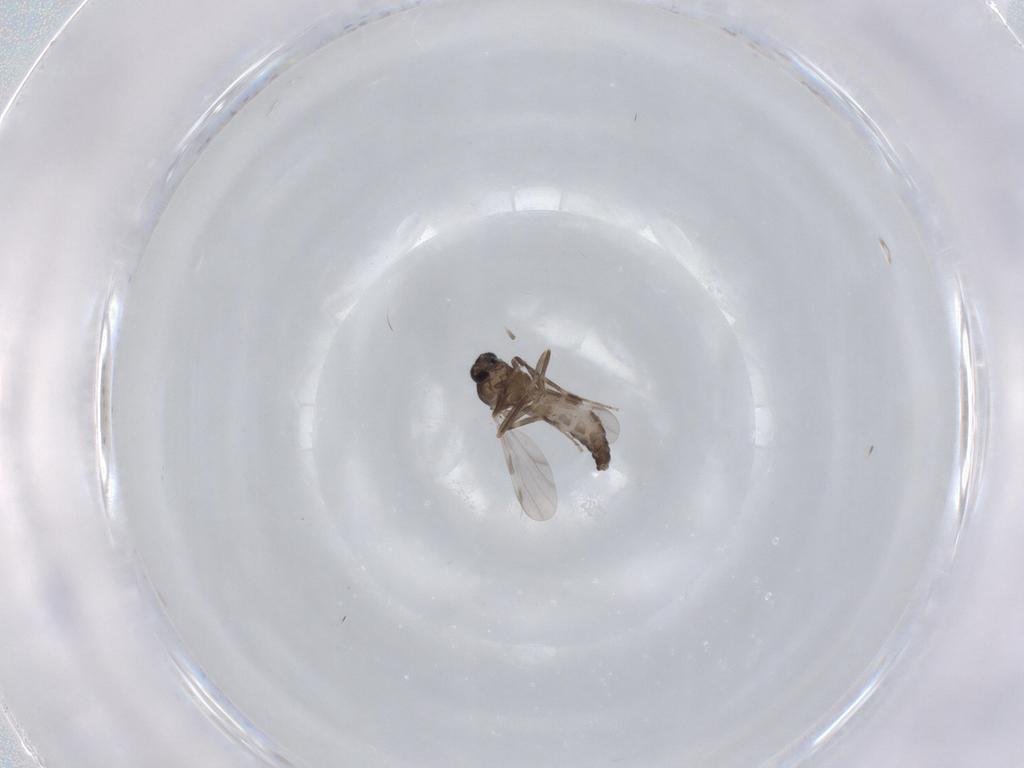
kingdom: Animalia
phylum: Arthropoda
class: Insecta
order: Diptera
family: Ceratopogonidae
